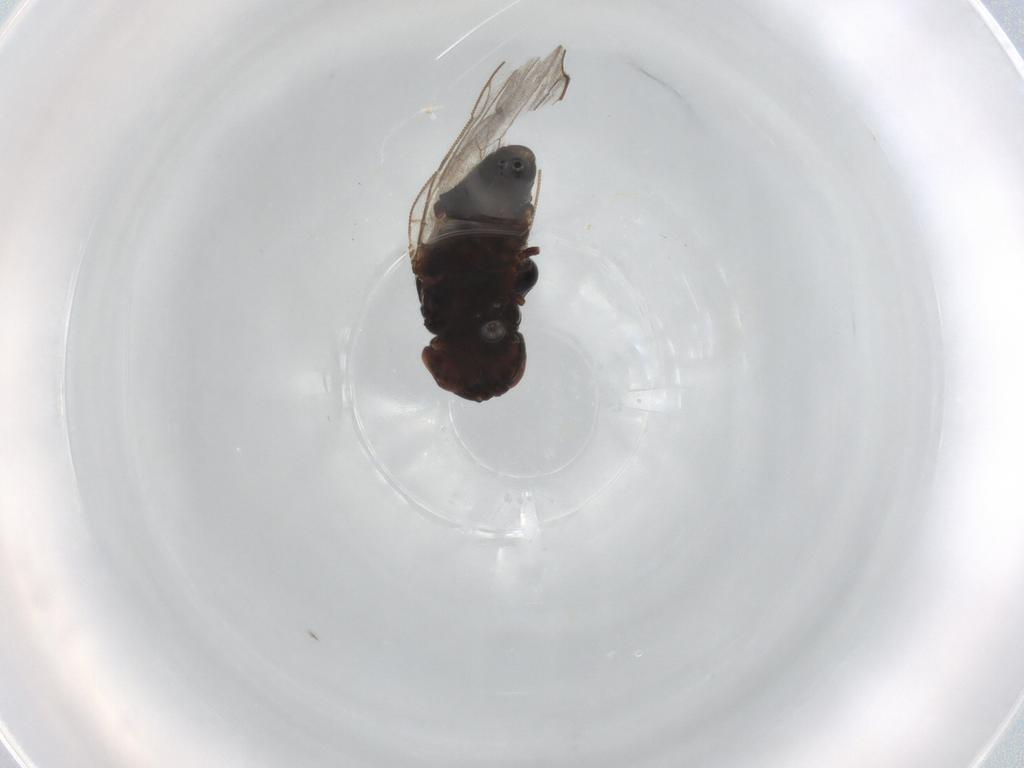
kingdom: Animalia
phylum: Arthropoda
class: Insecta
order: Diptera
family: Chloropidae
